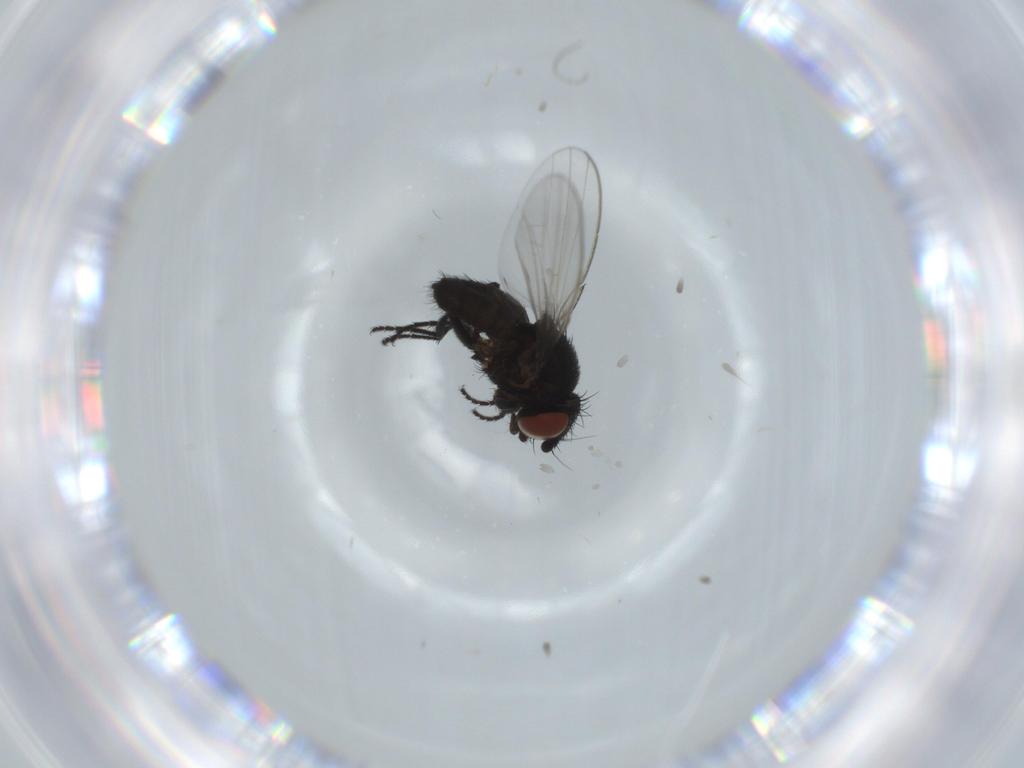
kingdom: Animalia
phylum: Arthropoda
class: Insecta
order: Diptera
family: Milichiidae
